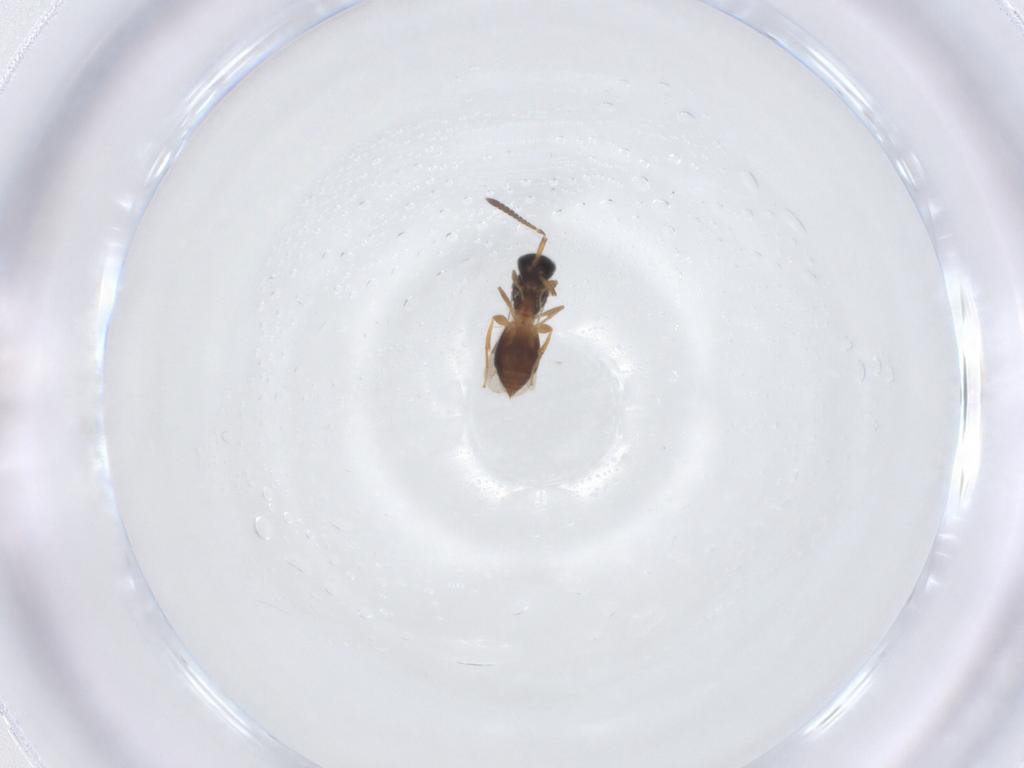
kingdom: Animalia
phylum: Arthropoda
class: Insecta
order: Hymenoptera
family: Megaspilidae
